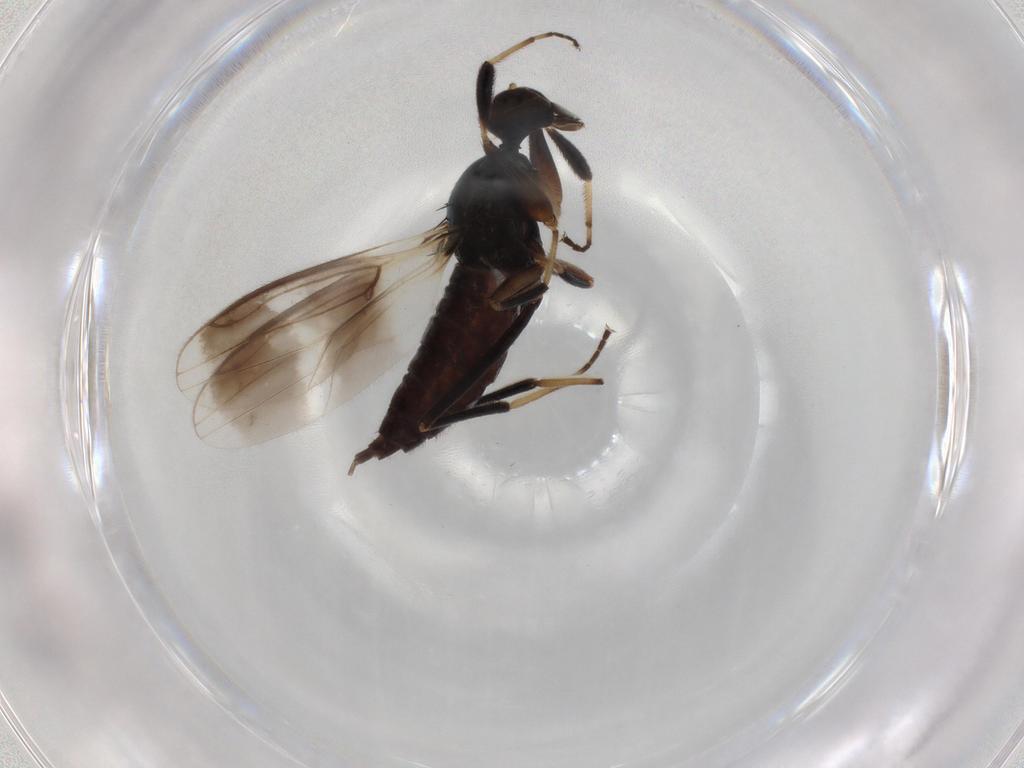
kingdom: Animalia
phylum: Arthropoda
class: Insecta
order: Diptera
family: Hybotidae
